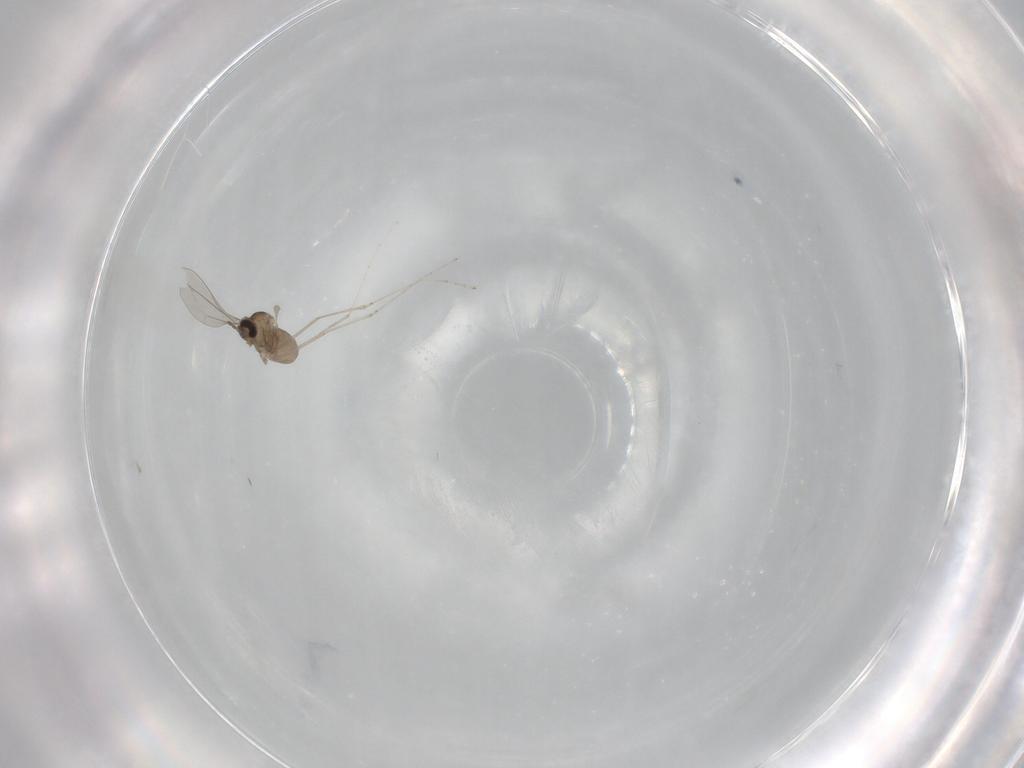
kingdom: Animalia
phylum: Arthropoda
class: Insecta
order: Diptera
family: Cecidomyiidae
